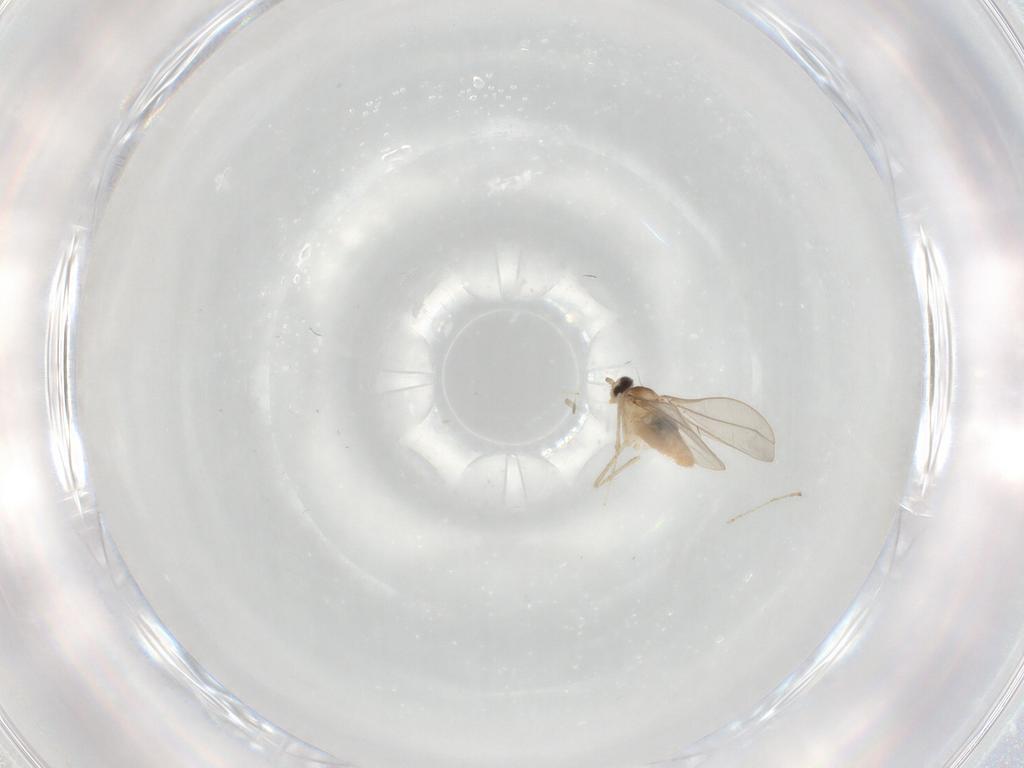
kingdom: Animalia
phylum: Arthropoda
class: Insecta
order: Diptera
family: Cecidomyiidae
